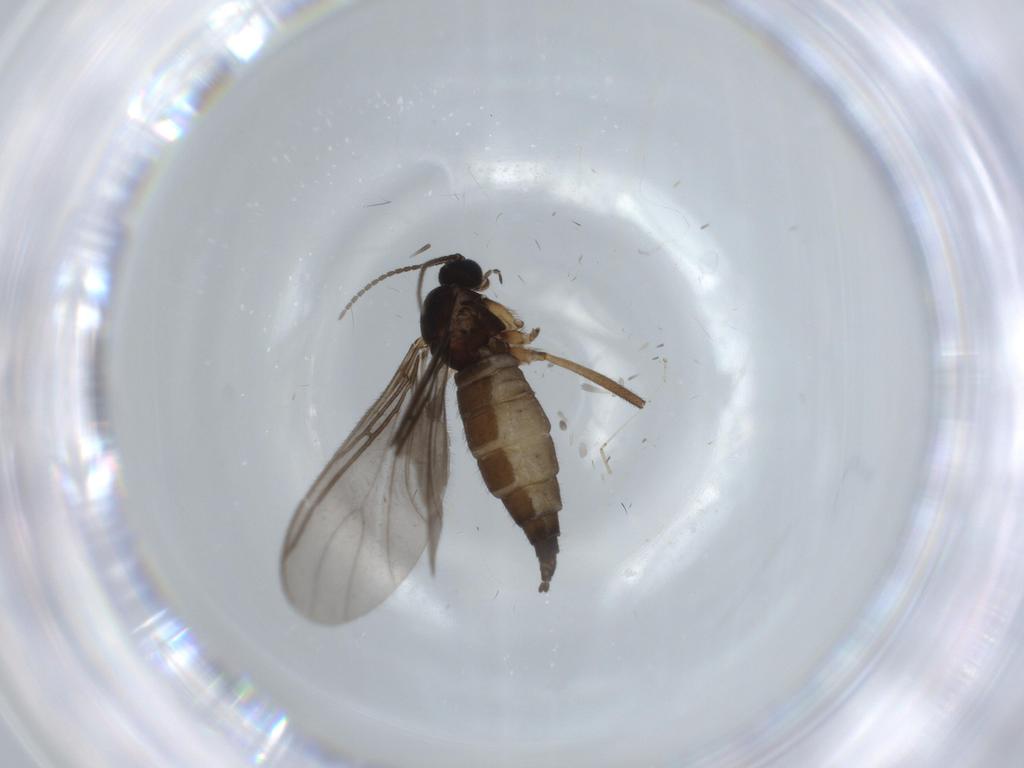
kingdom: Animalia
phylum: Arthropoda
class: Insecta
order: Diptera
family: Sciaridae
